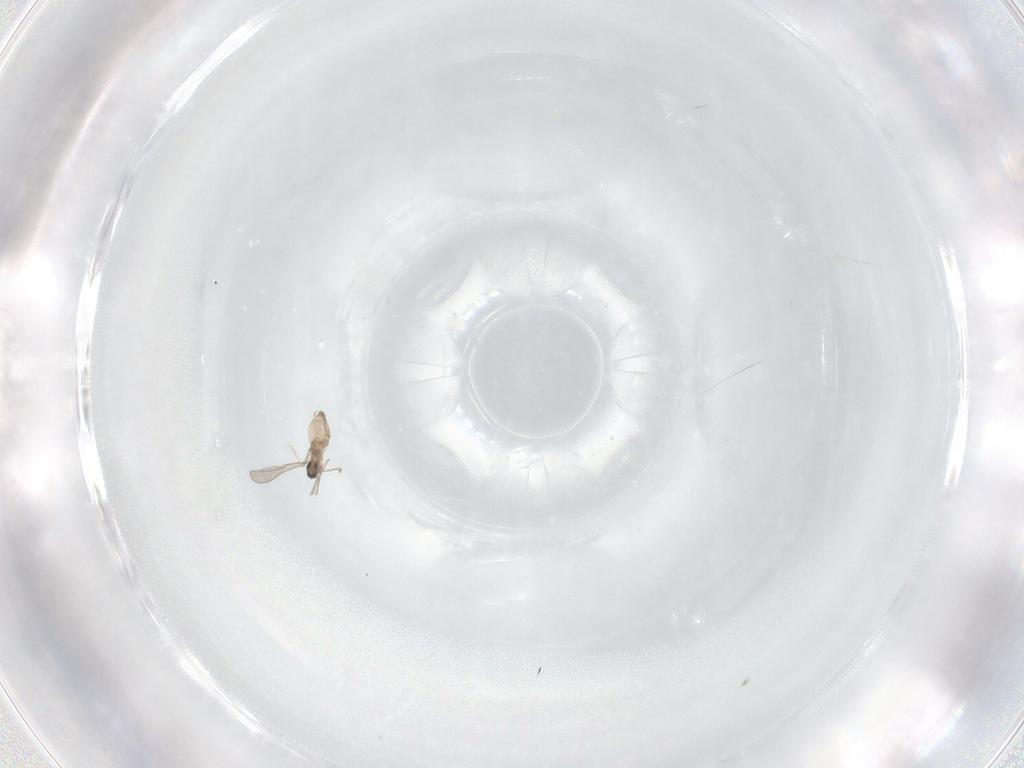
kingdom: Animalia
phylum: Arthropoda
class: Insecta
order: Diptera
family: Cecidomyiidae
